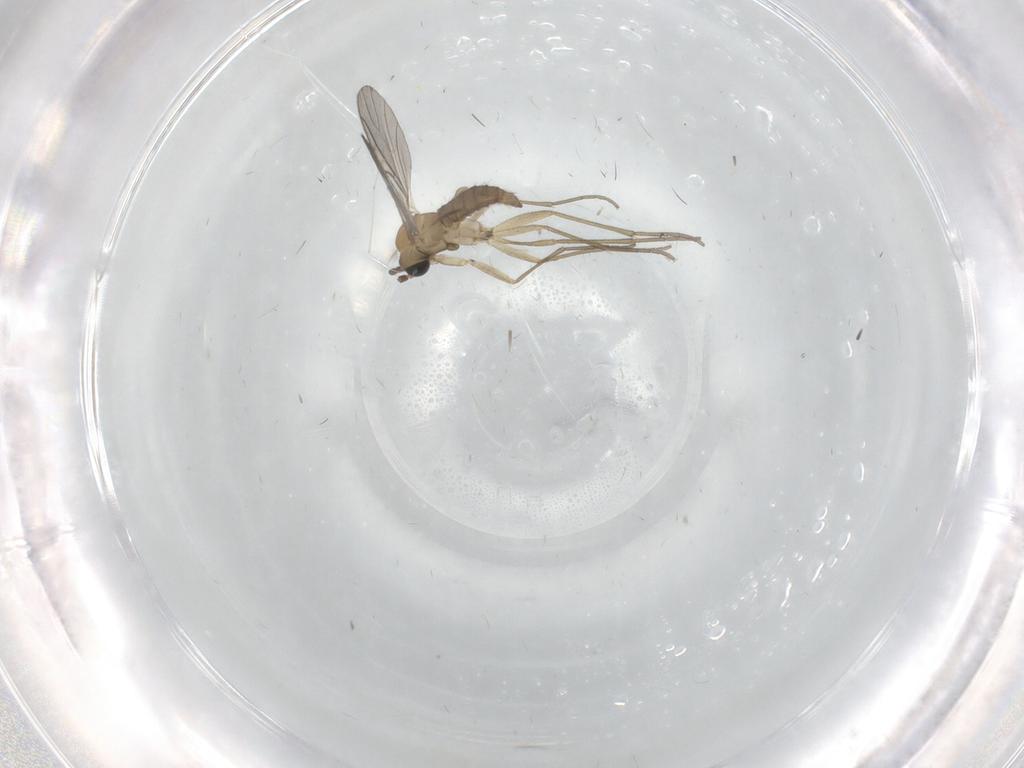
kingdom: Animalia
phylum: Arthropoda
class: Insecta
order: Diptera
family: Sciaridae
